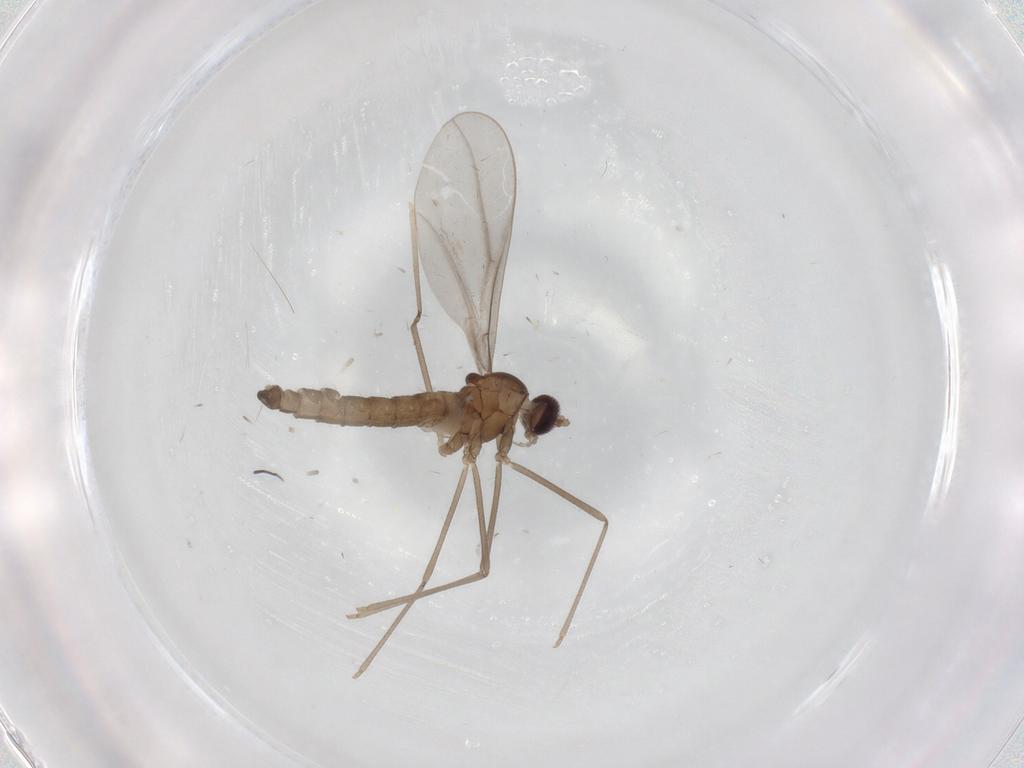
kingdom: Animalia
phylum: Arthropoda
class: Insecta
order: Diptera
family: Cecidomyiidae
